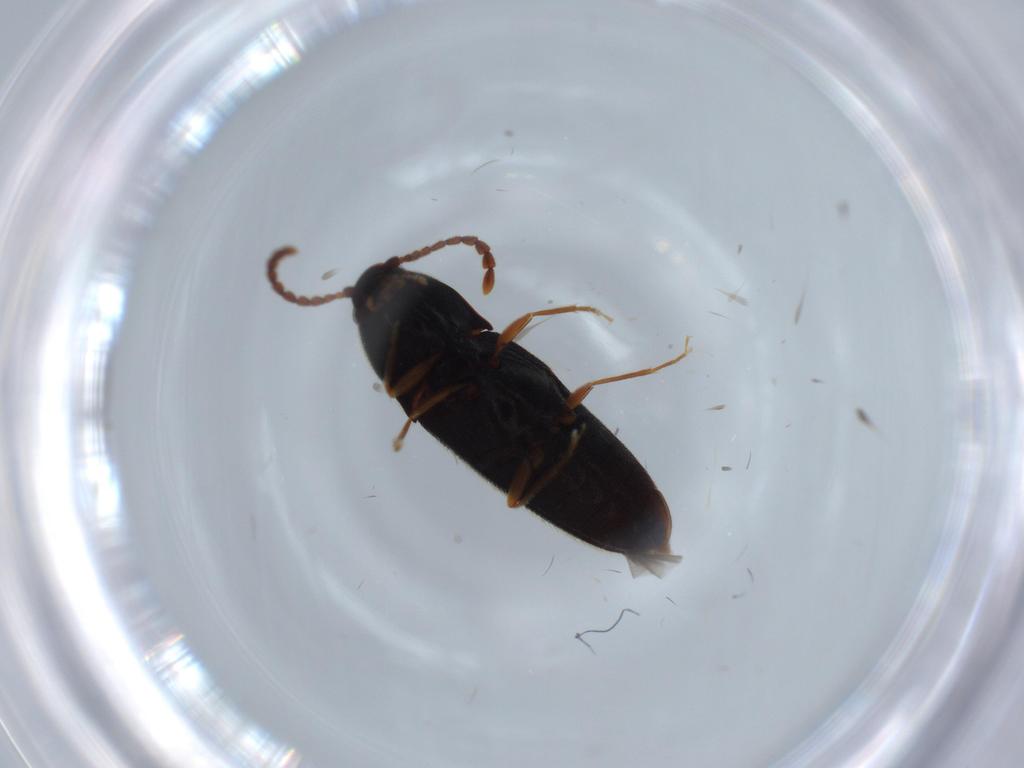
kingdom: Animalia
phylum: Arthropoda
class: Insecta
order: Coleoptera
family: Elateridae
